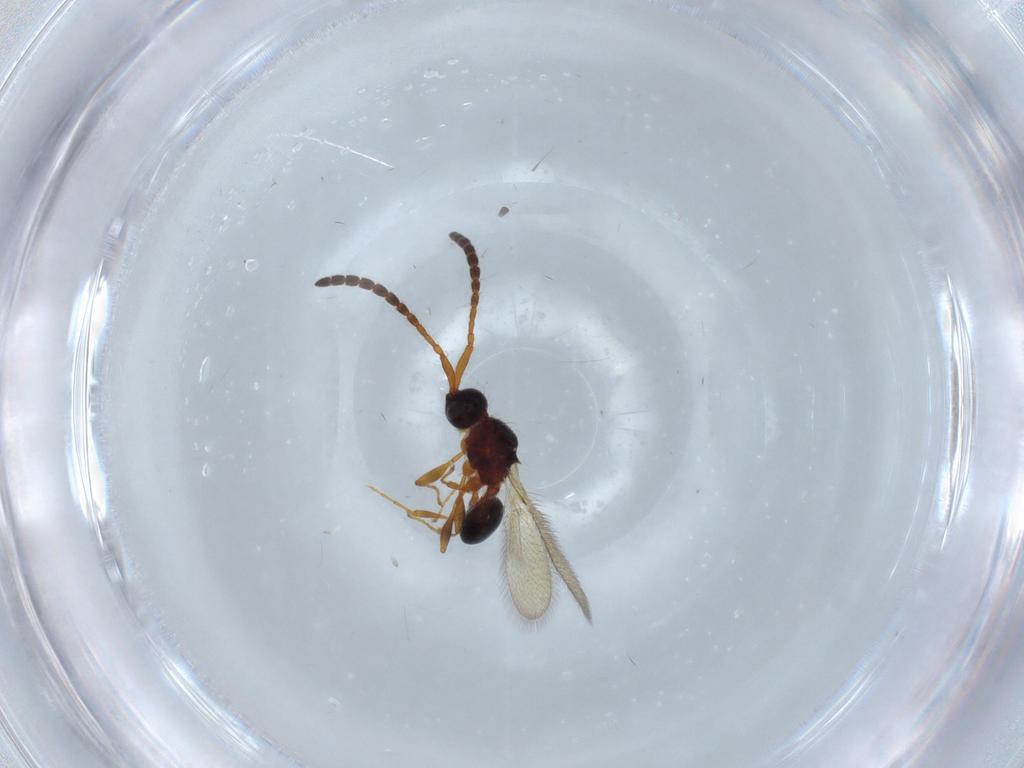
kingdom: Animalia
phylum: Arthropoda
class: Insecta
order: Hymenoptera
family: Diapriidae
